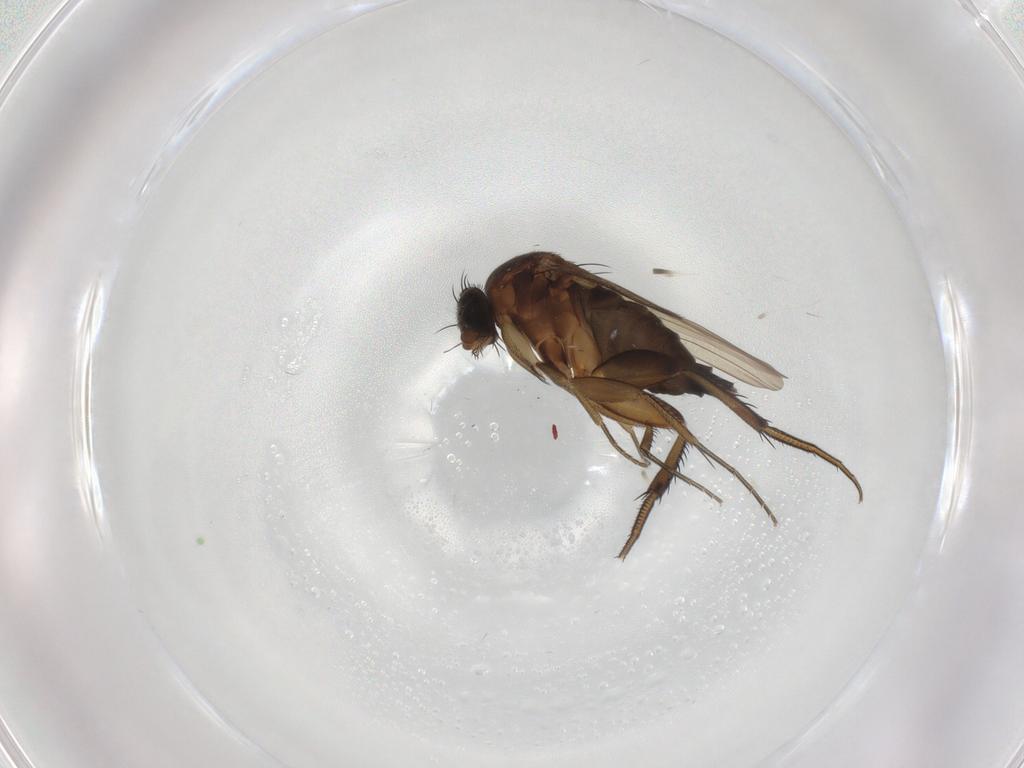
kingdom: Animalia
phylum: Arthropoda
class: Insecta
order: Diptera
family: Phoridae
